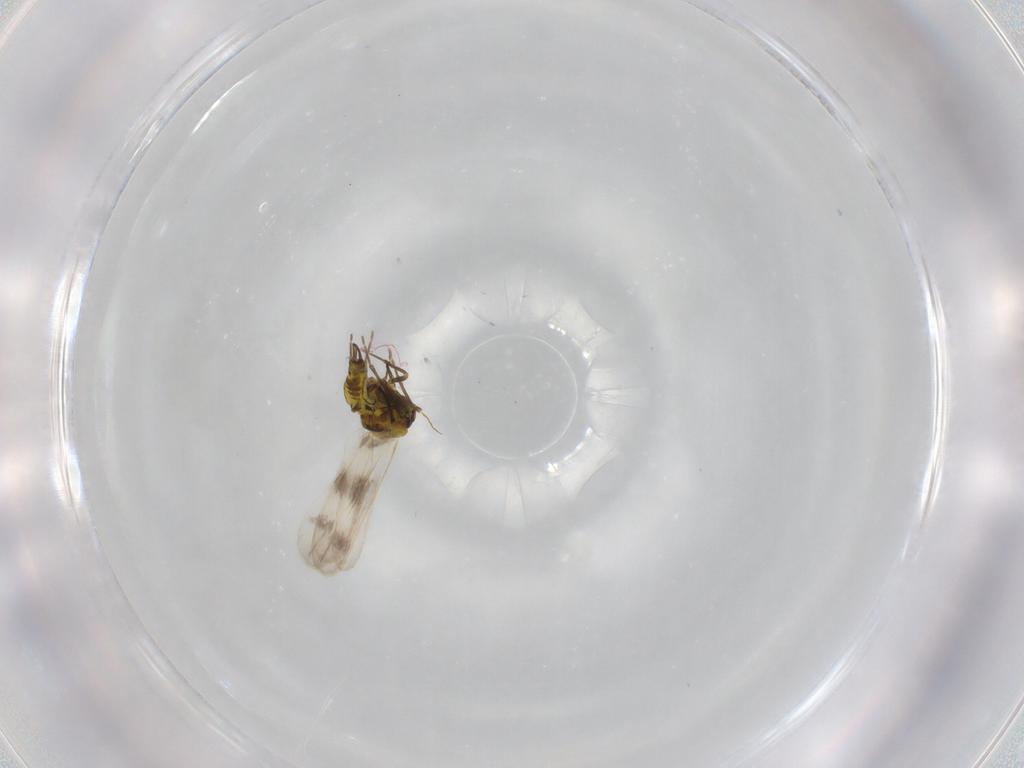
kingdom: Animalia
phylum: Arthropoda
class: Insecta
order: Hemiptera
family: Aleyrodidae
